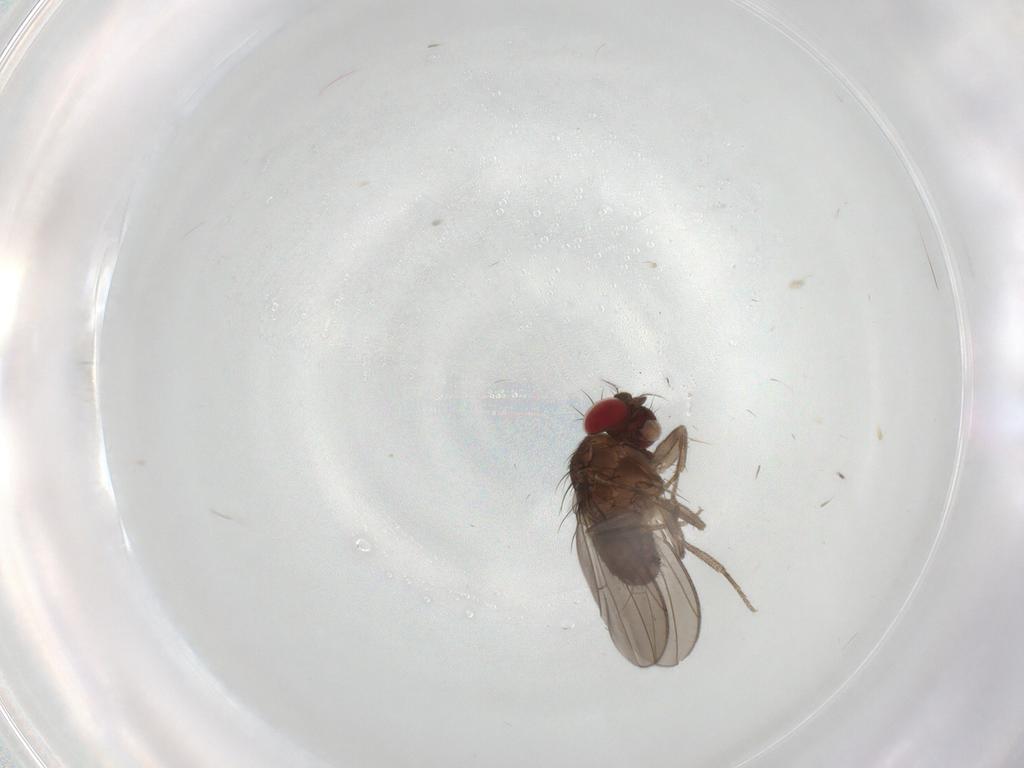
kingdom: Animalia
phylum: Arthropoda
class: Insecta
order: Diptera
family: Drosophilidae
